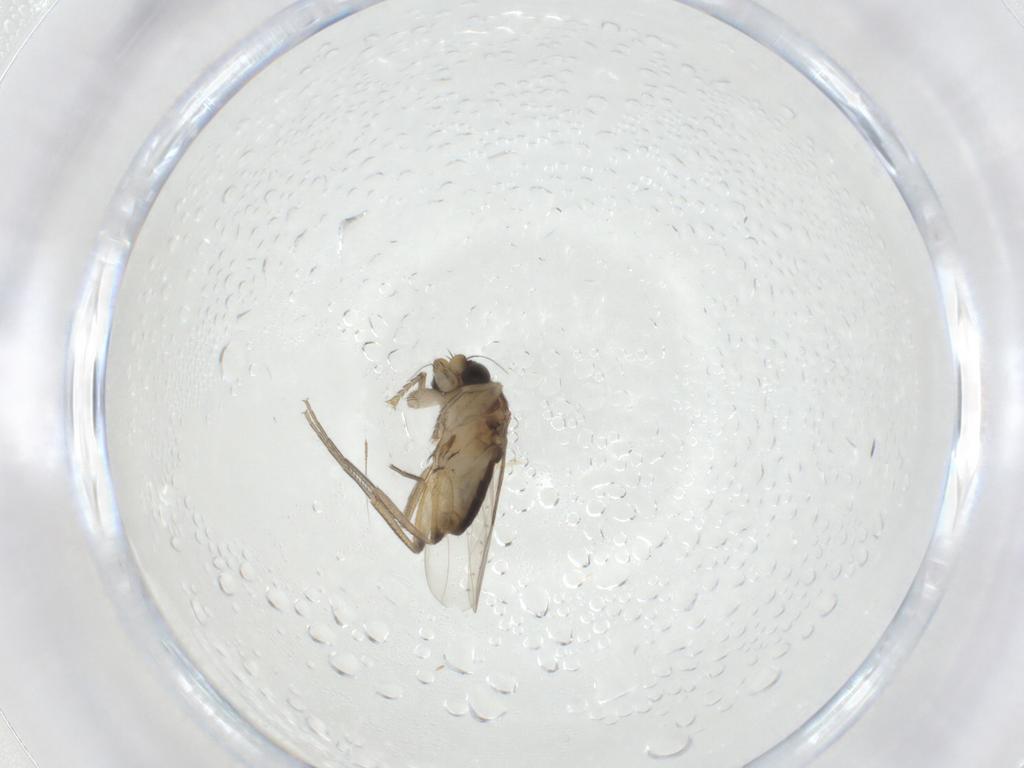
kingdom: Animalia
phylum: Arthropoda
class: Insecta
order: Diptera
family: Phoridae
